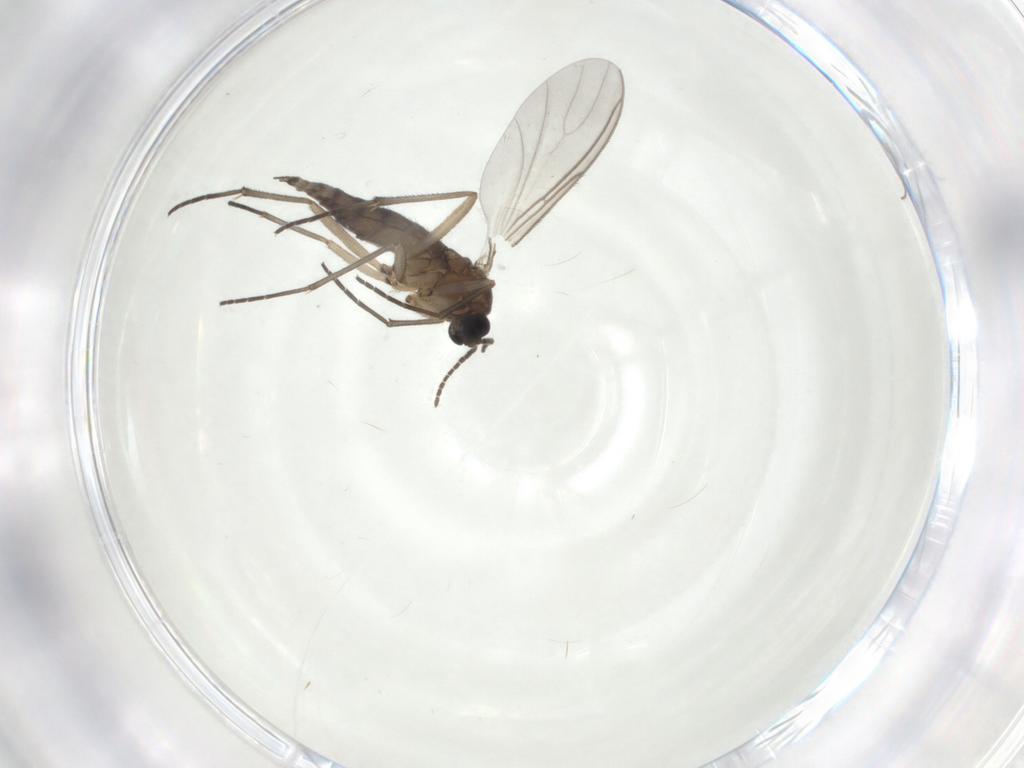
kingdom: Animalia
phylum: Arthropoda
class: Insecta
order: Diptera
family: Sciaridae
